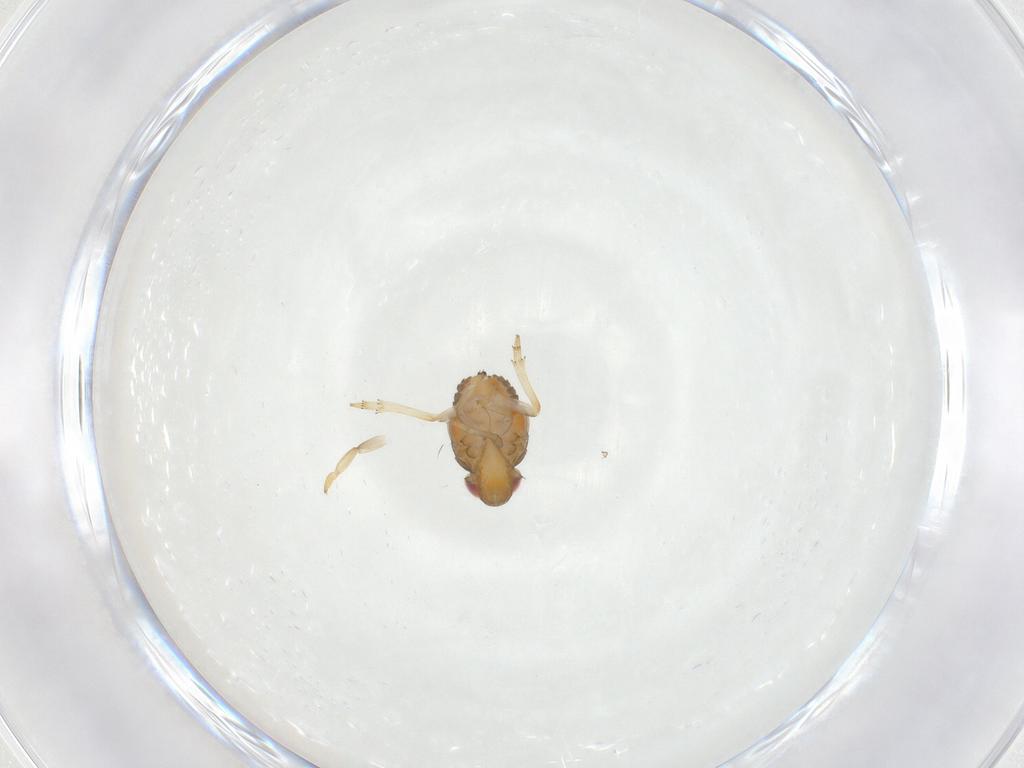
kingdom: Animalia
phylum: Arthropoda
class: Insecta
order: Hemiptera
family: Issidae
